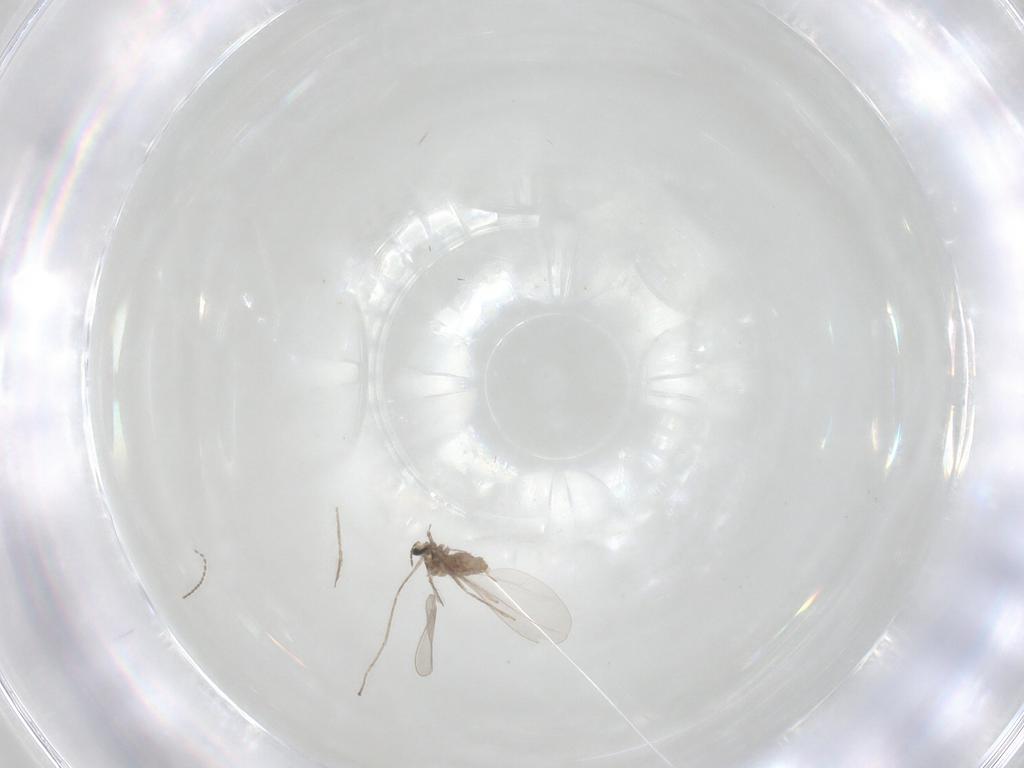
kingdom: Animalia
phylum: Arthropoda
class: Insecta
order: Diptera
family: Cecidomyiidae
